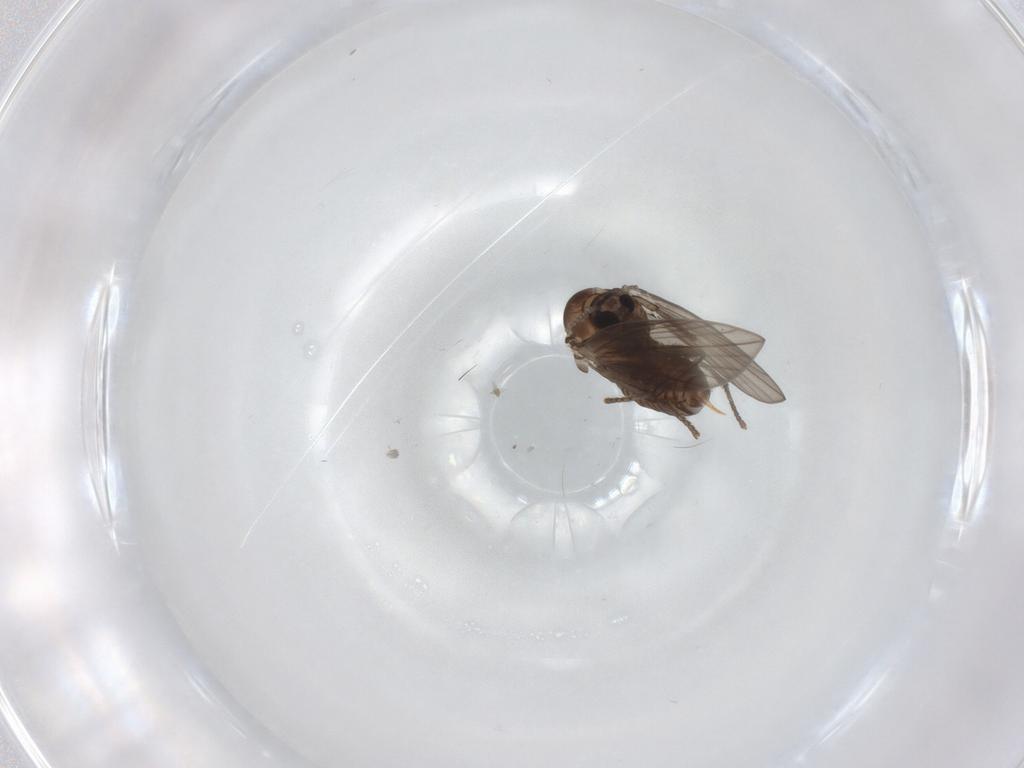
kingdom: Animalia
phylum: Arthropoda
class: Insecta
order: Diptera
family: Psychodidae
